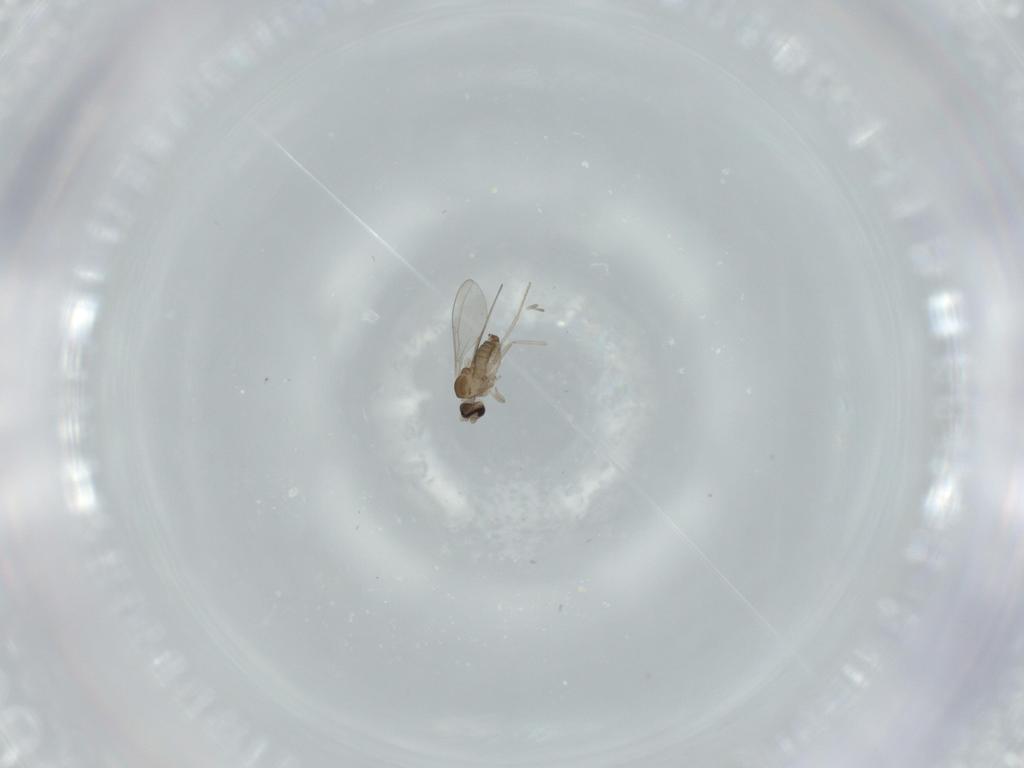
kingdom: Animalia
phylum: Arthropoda
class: Insecta
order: Diptera
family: Cecidomyiidae
